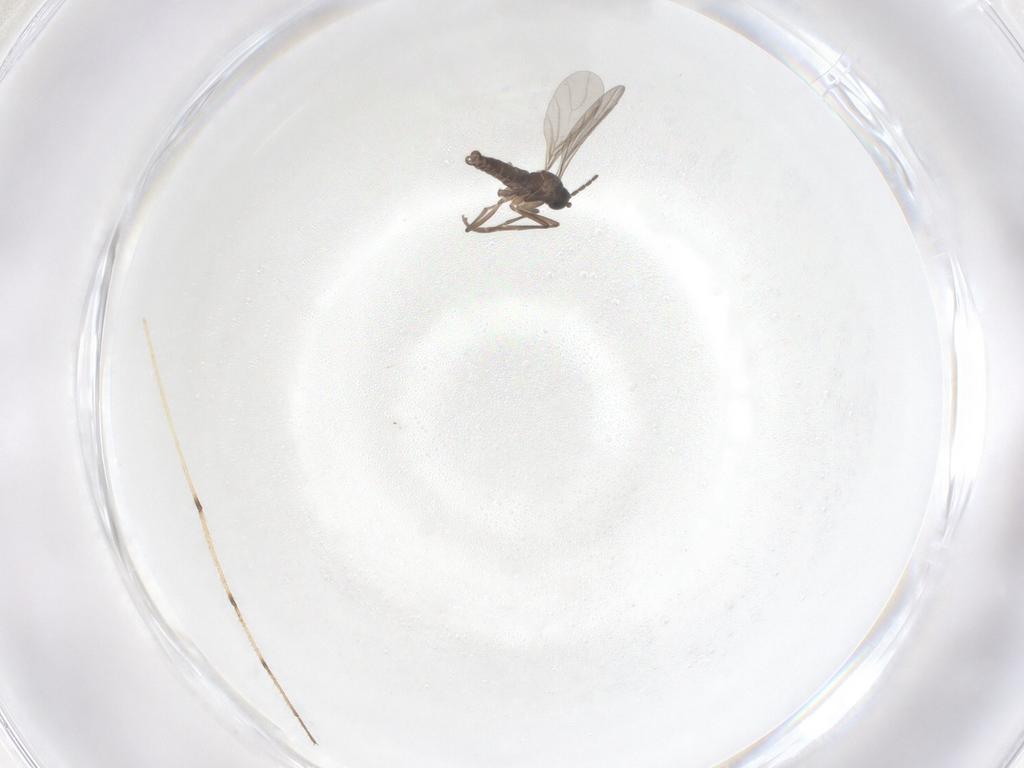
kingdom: Animalia
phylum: Arthropoda
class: Insecta
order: Diptera
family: Sciaridae
